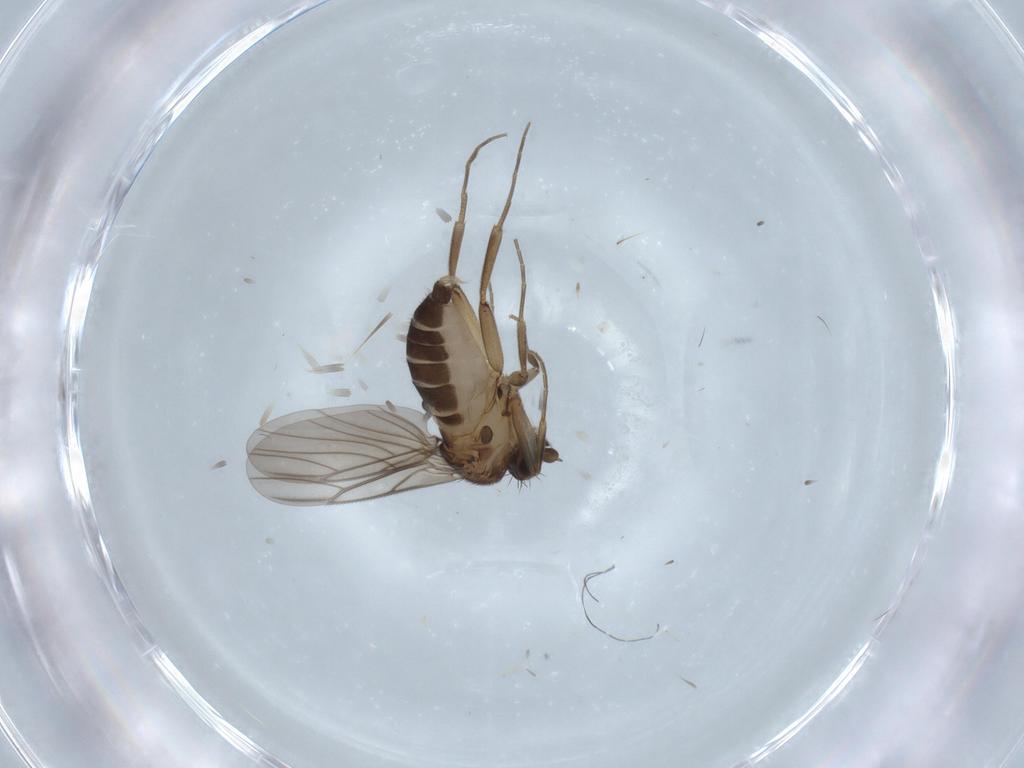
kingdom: Animalia
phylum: Arthropoda
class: Insecta
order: Diptera
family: Phoridae
